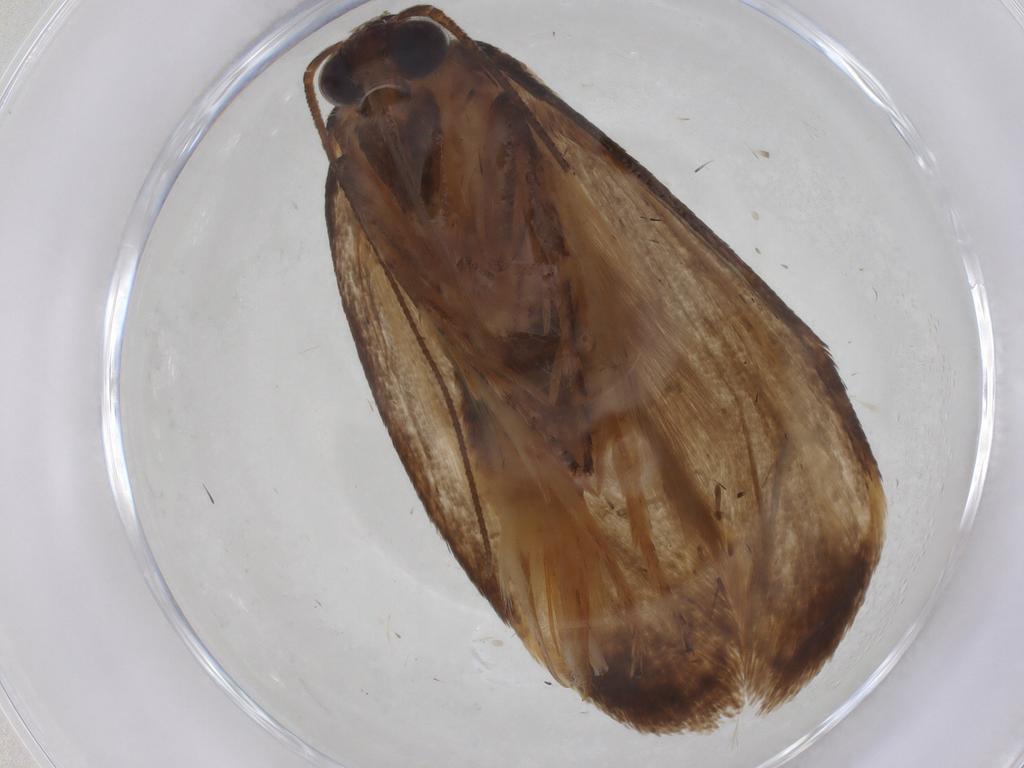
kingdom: Animalia
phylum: Arthropoda
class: Insecta
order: Lepidoptera
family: Oecophoridae
